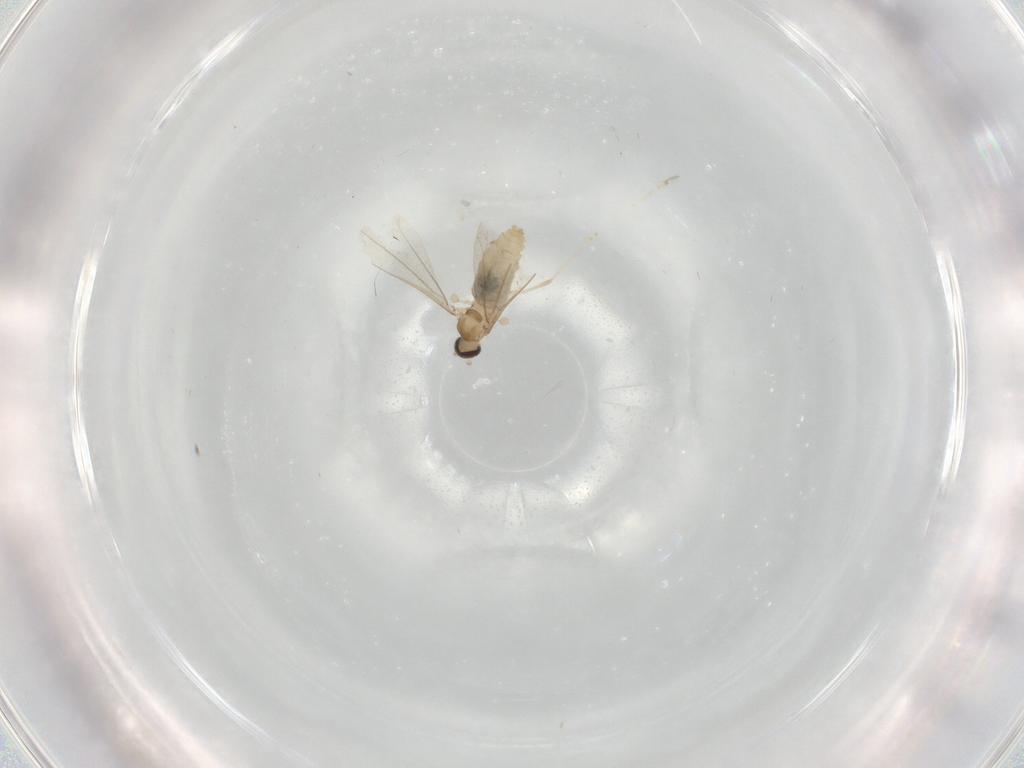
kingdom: Animalia
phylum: Arthropoda
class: Insecta
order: Diptera
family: Cecidomyiidae
